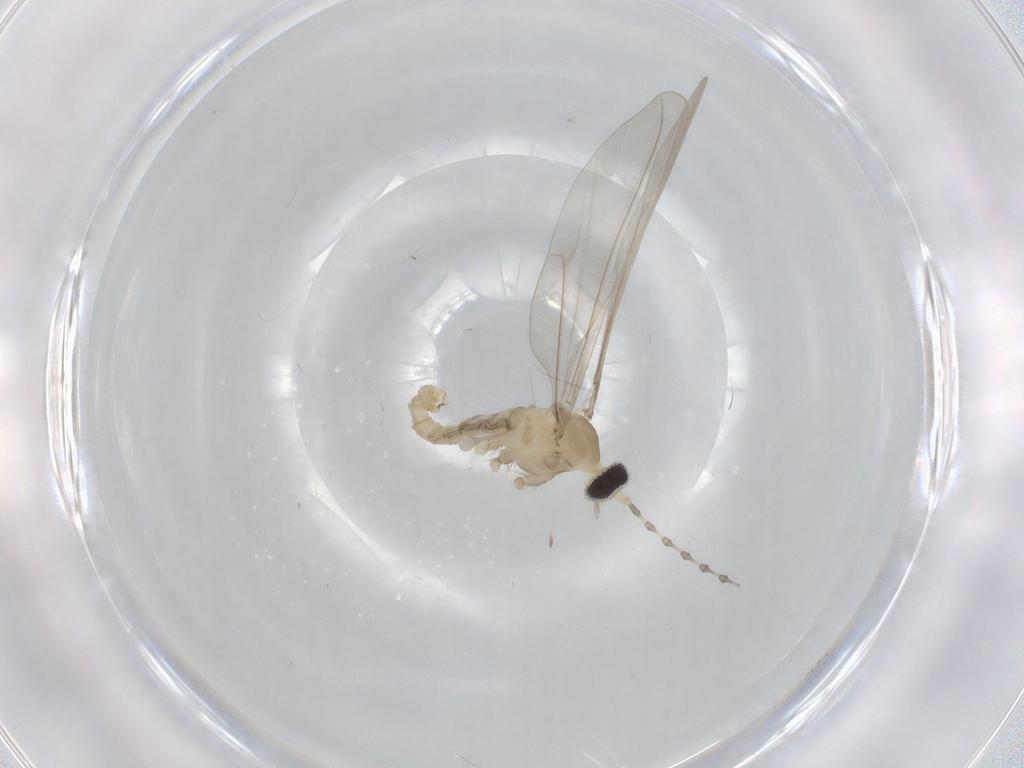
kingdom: Animalia
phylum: Arthropoda
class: Insecta
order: Diptera
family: Sciaridae
